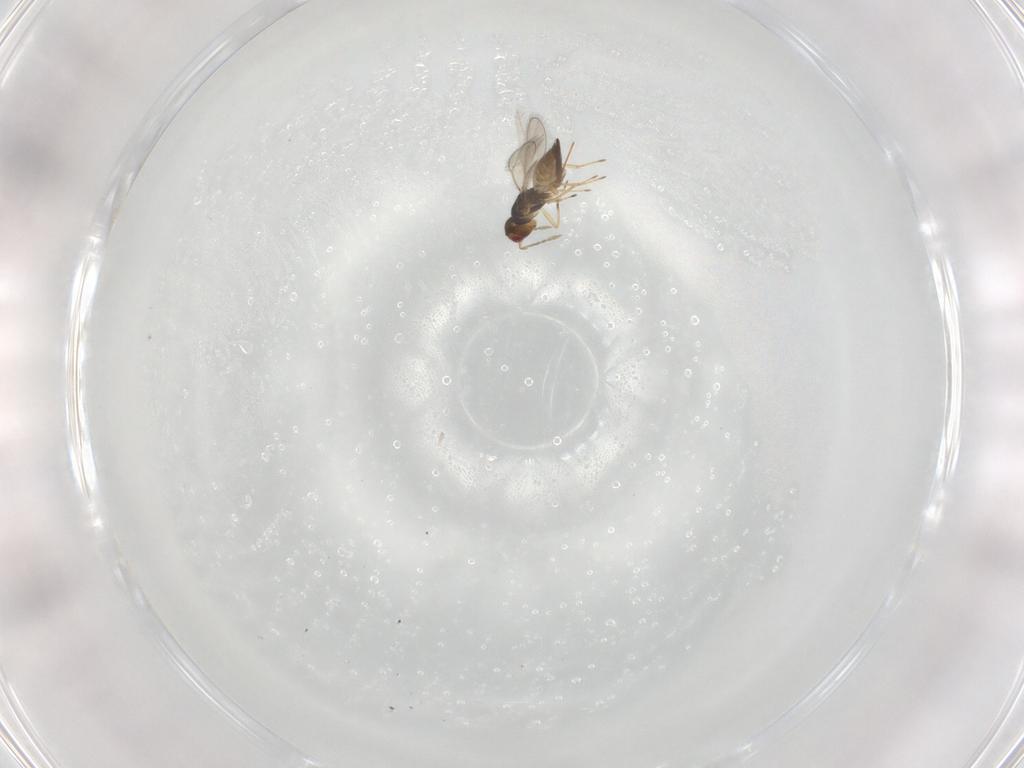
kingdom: Animalia
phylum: Arthropoda
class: Insecta
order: Hymenoptera
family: Eulophidae
